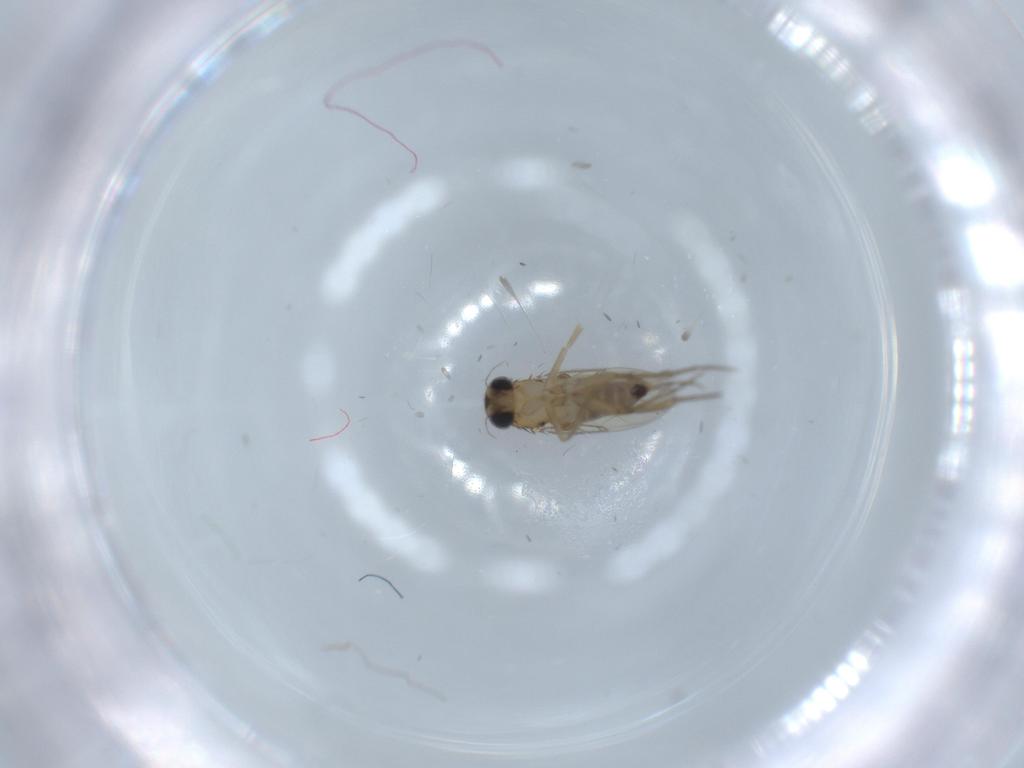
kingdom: Animalia
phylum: Arthropoda
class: Insecta
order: Diptera
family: Phoridae
